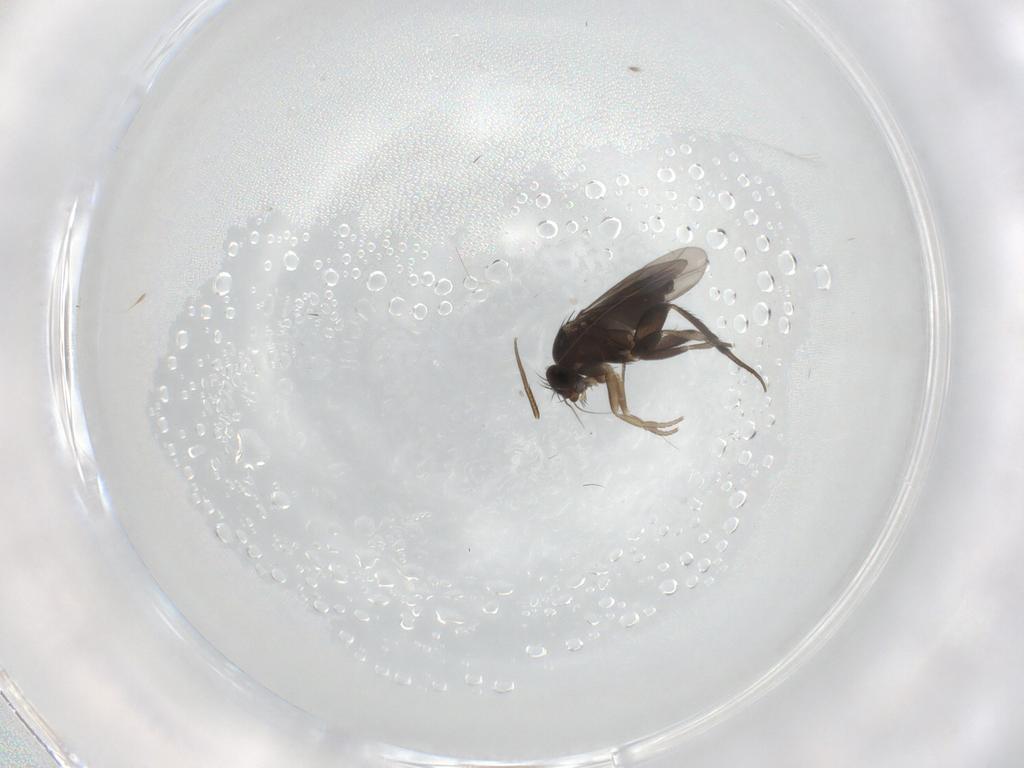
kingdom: Animalia
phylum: Arthropoda
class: Insecta
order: Diptera
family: Phoridae
